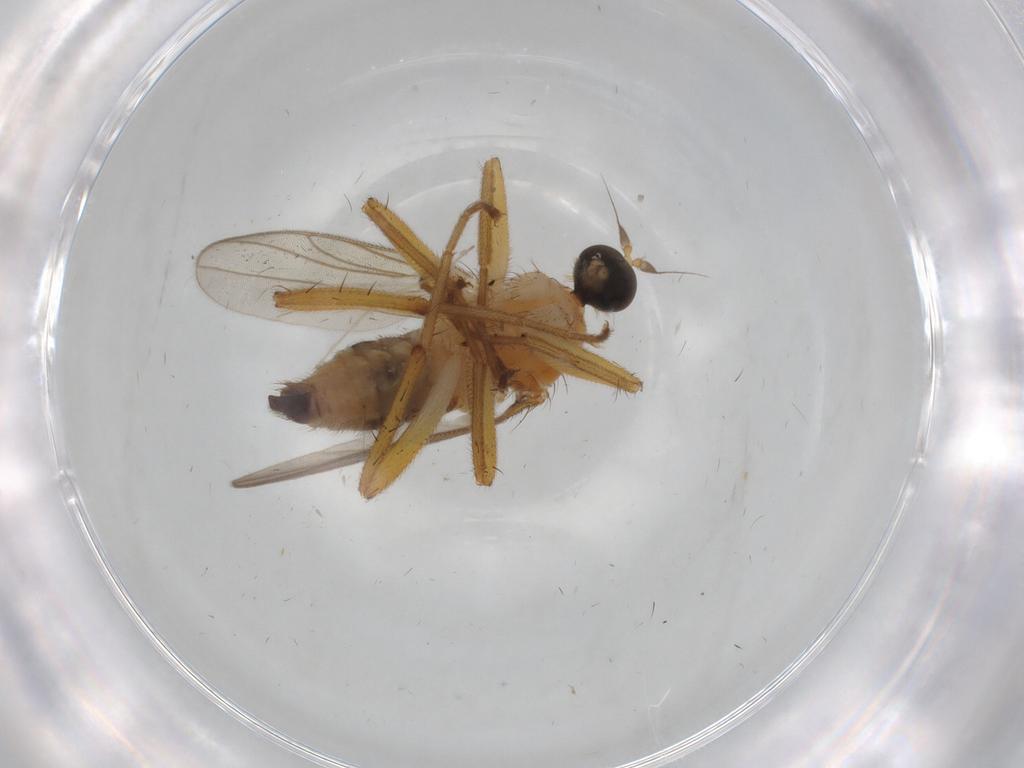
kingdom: Animalia
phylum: Arthropoda
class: Insecta
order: Diptera
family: Hybotidae
